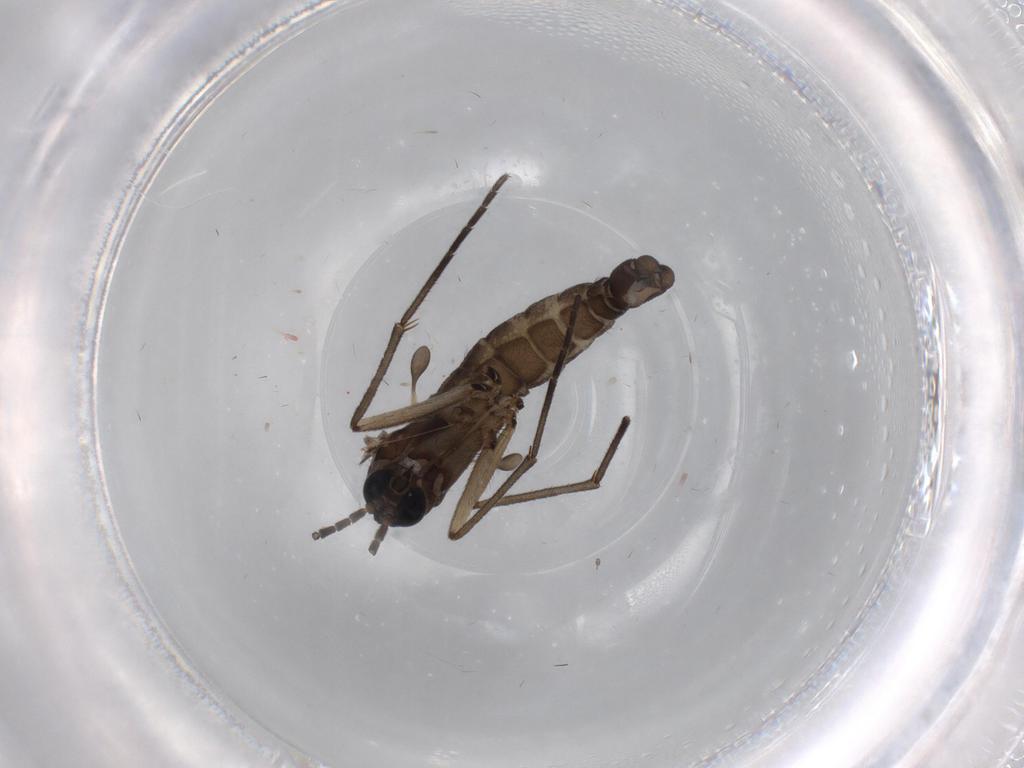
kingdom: Animalia
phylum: Arthropoda
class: Insecta
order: Diptera
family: Sciaridae
